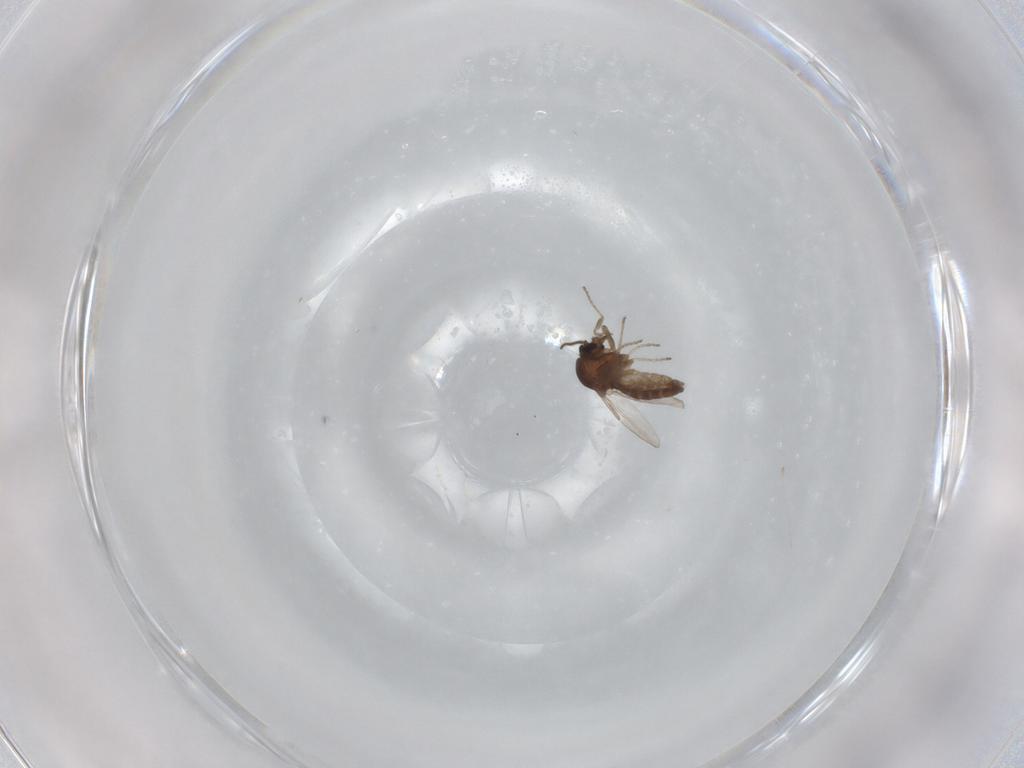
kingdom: Animalia
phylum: Arthropoda
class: Insecta
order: Diptera
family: Ceratopogonidae
